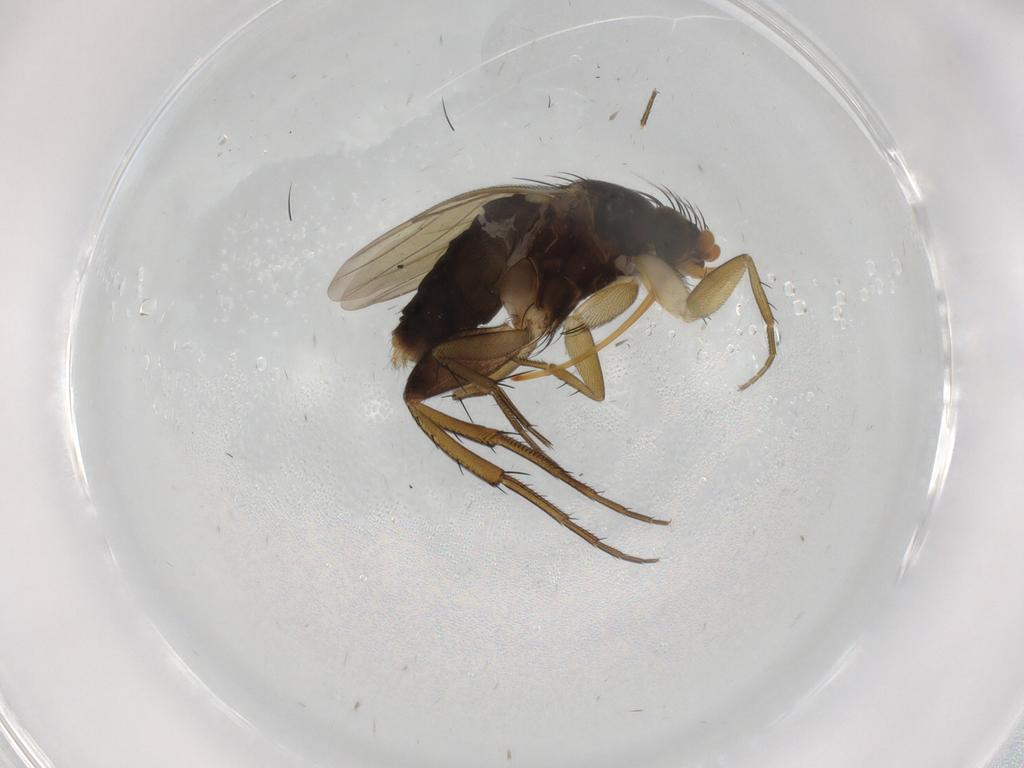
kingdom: Animalia
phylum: Arthropoda
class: Insecta
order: Diptera
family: Phoridae
